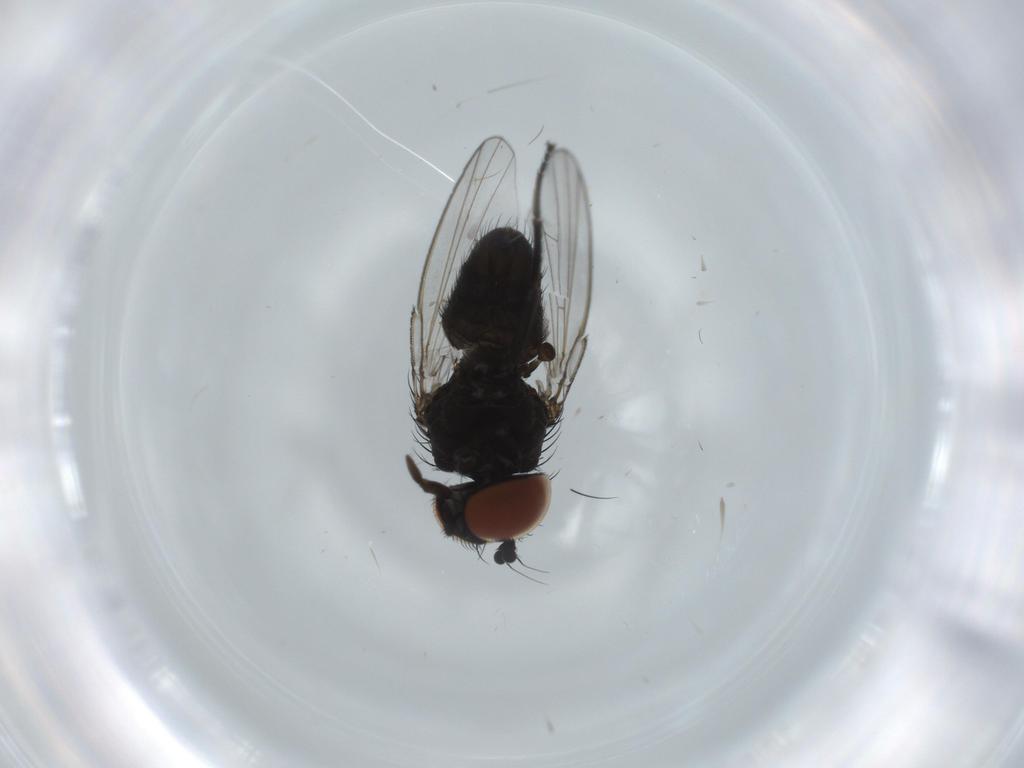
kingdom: Animalia
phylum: Arthropoda
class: Insecta
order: Diptera
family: Milichiidae
